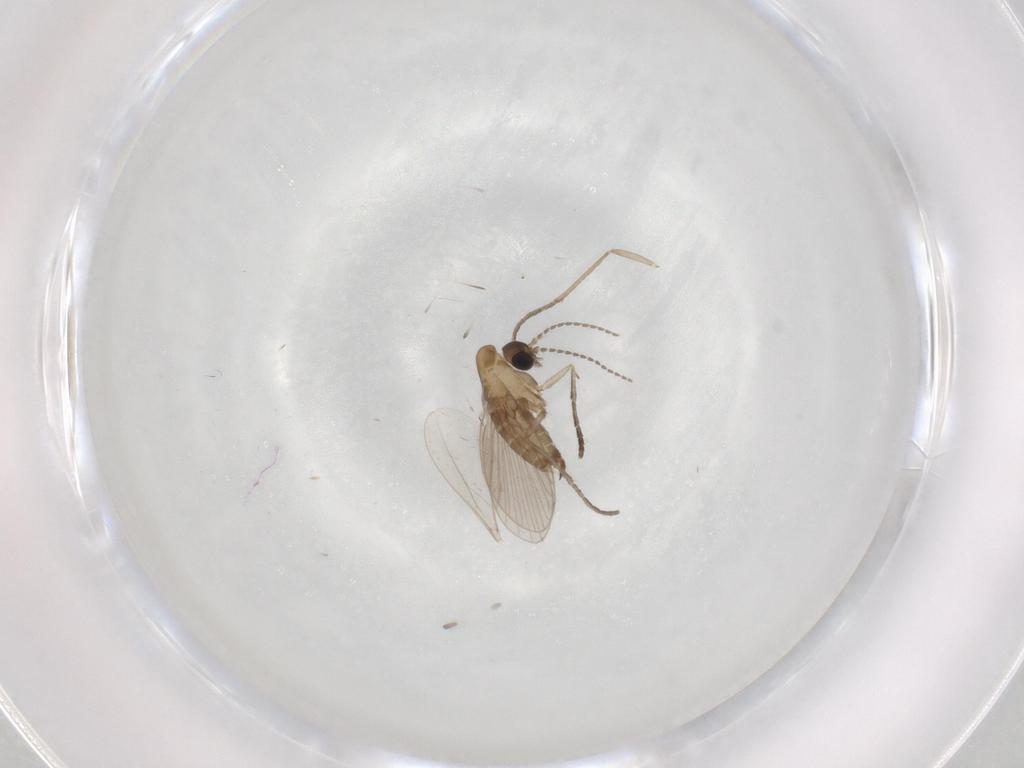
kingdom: Animalia
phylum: Arthropoda
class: Insecta
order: Diptera
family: Psychodidae
